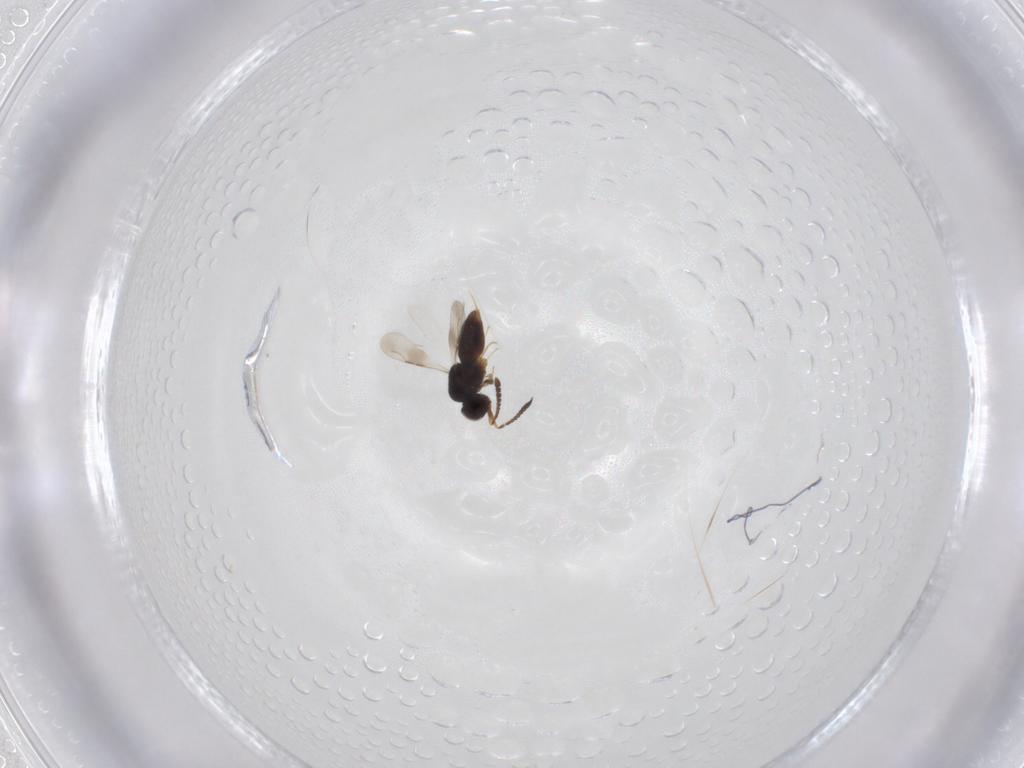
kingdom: Animalia
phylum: Arthropoda
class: Insecta
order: Hymenoptera
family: Ceraphronidae
